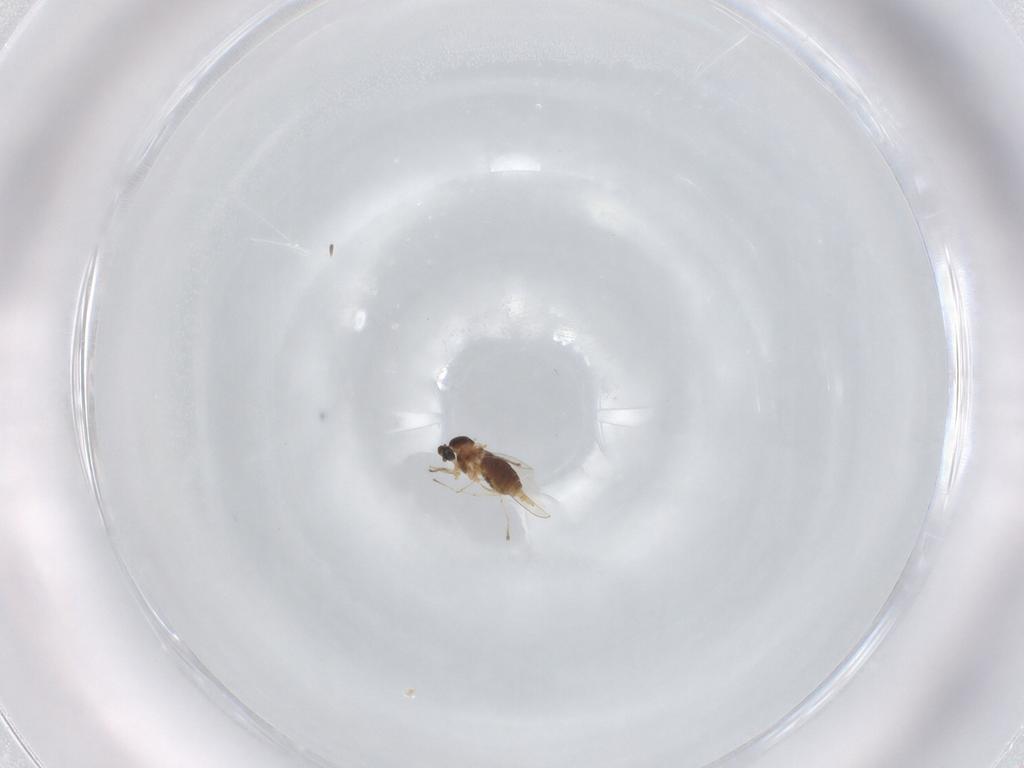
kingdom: Animalia
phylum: Arthropoda
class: Insecta
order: Diptera
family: Cecidomyiidae
